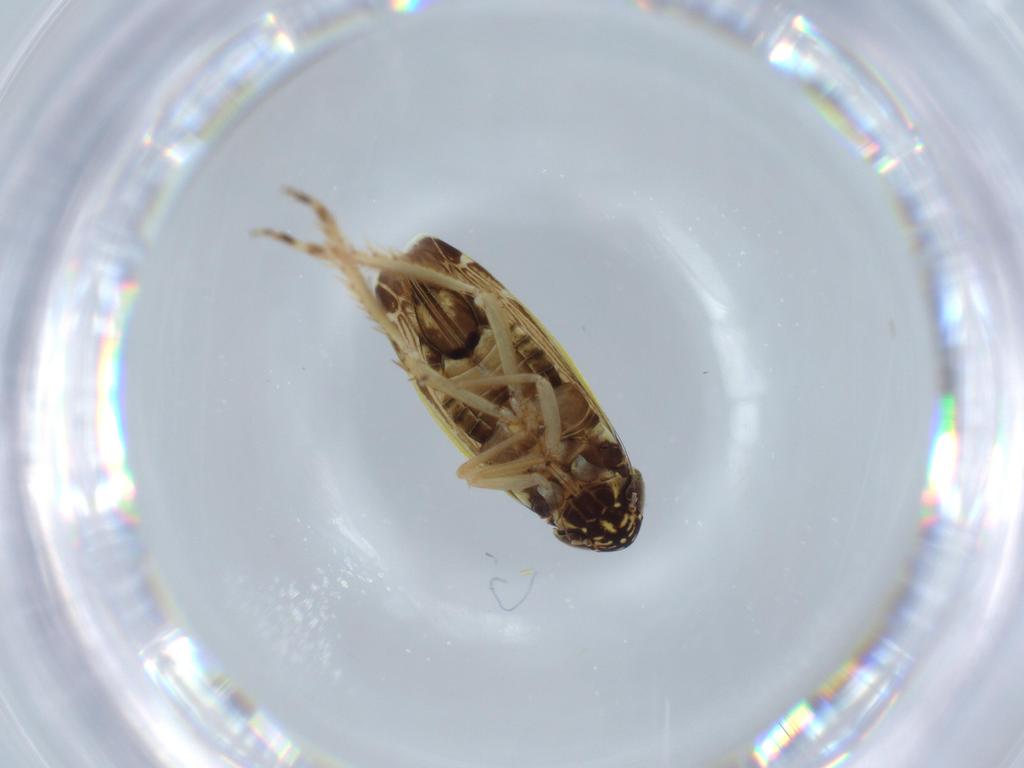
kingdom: Animalia
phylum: Arthropoda
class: Insecta
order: Hemiptera
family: Cicadellidae
